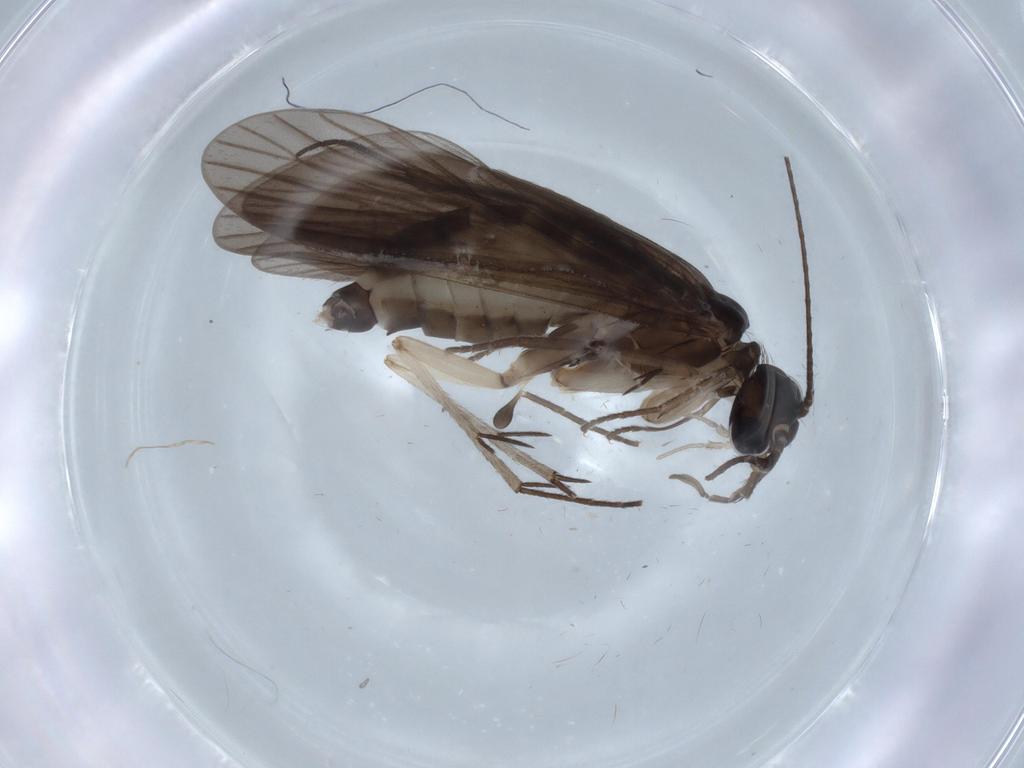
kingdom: Animalia
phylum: Arthropoda
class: Insecta
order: Trichoptera
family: Philopotamidae
